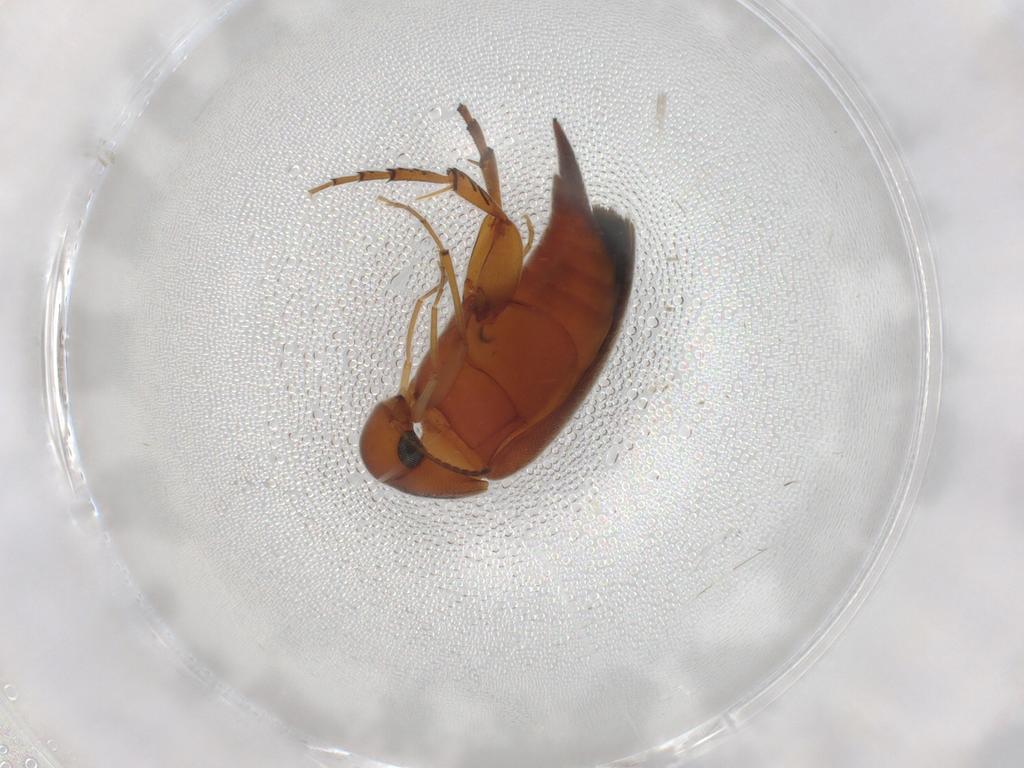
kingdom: Animalia
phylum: Arthropoda
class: Insecta
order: Coleoptera
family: Mordellidae
